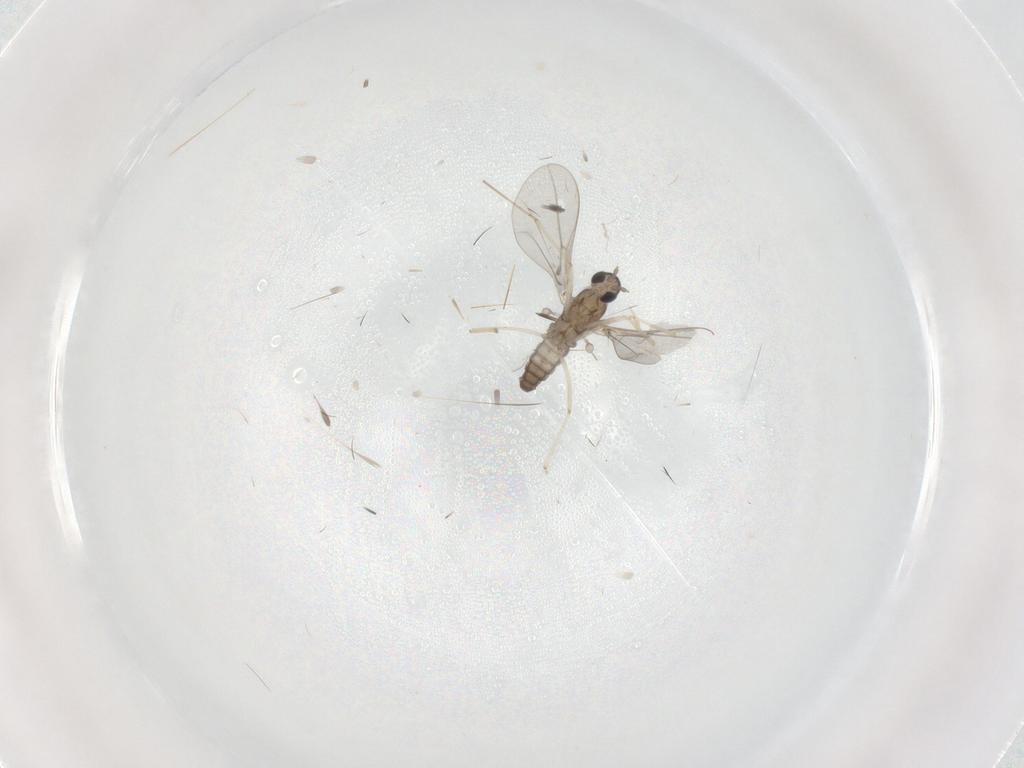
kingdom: Animalia
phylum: Arthropoda
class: Insecta
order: Diptera
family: Cecidomyiidae
